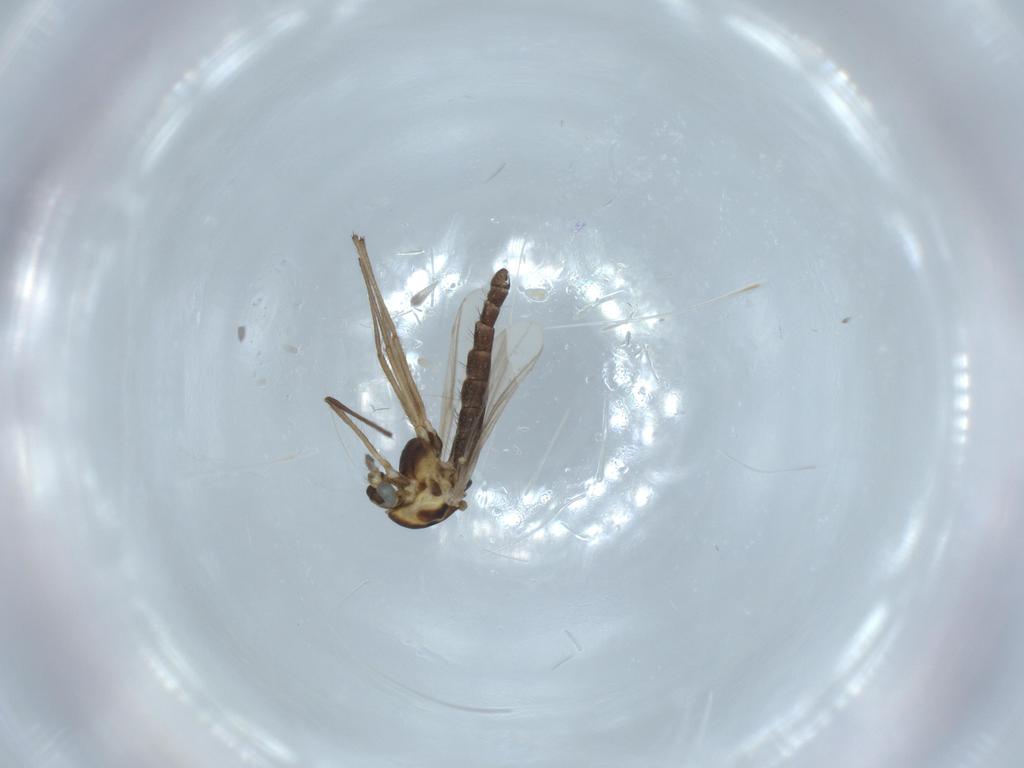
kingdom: Animalia
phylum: Arthropoda
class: Insecta
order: Diptera
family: Chironomidae
